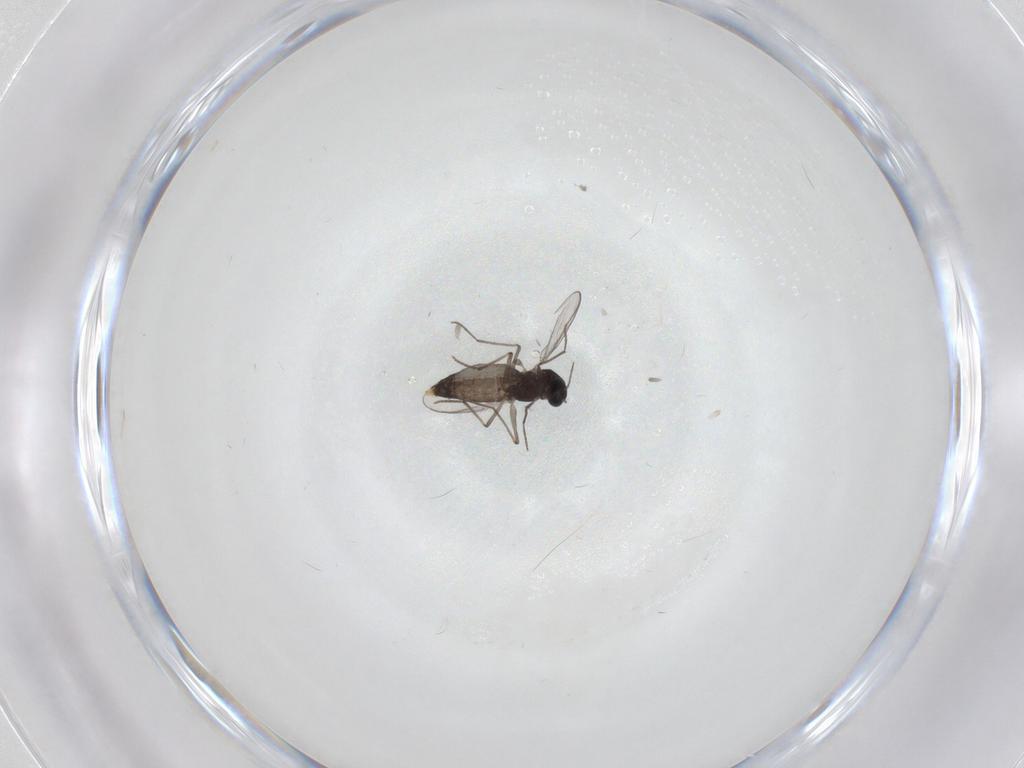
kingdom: Animalia
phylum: Arthropoda
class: Insecta
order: Diptera
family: Chironomidae
